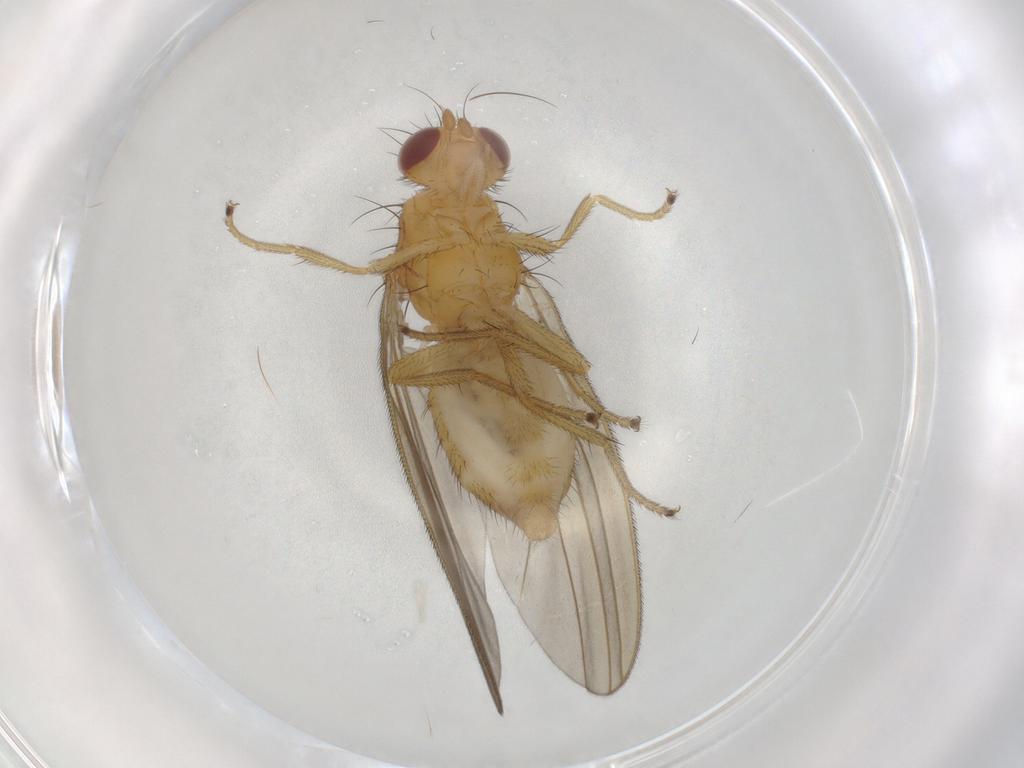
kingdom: Animalia
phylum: Arthropoda
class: Insecta
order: Diptera
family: Natalimyzidae
